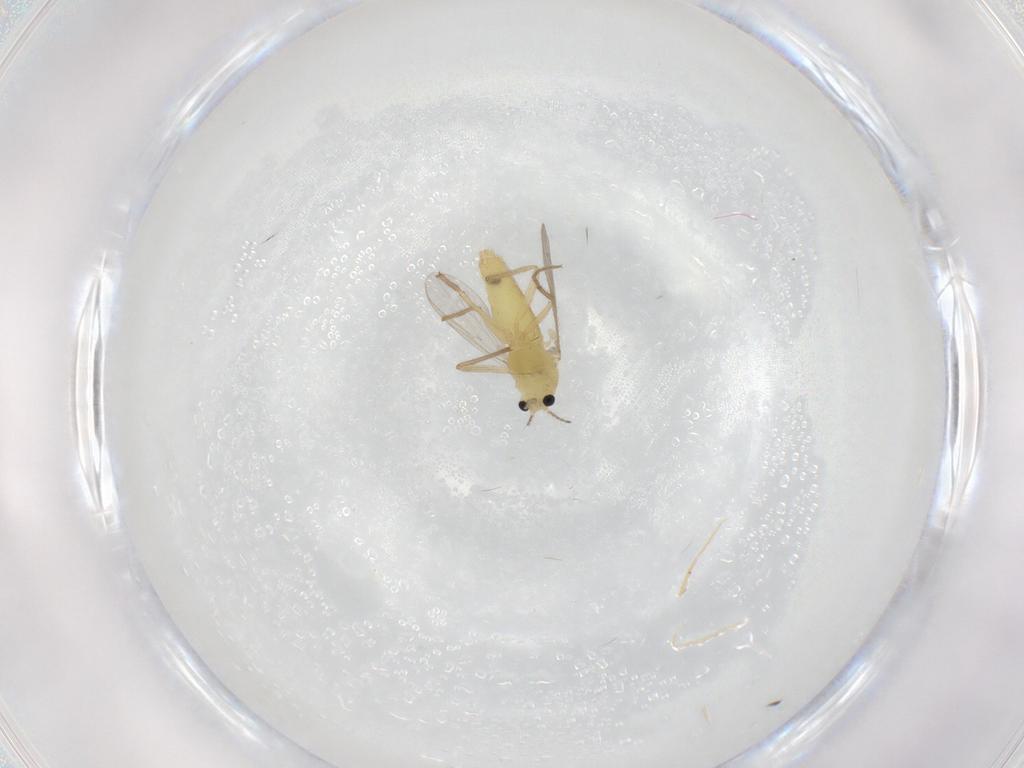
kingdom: Animalia
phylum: Arthropoda
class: Insecta
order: Diptera
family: Chironomidae
